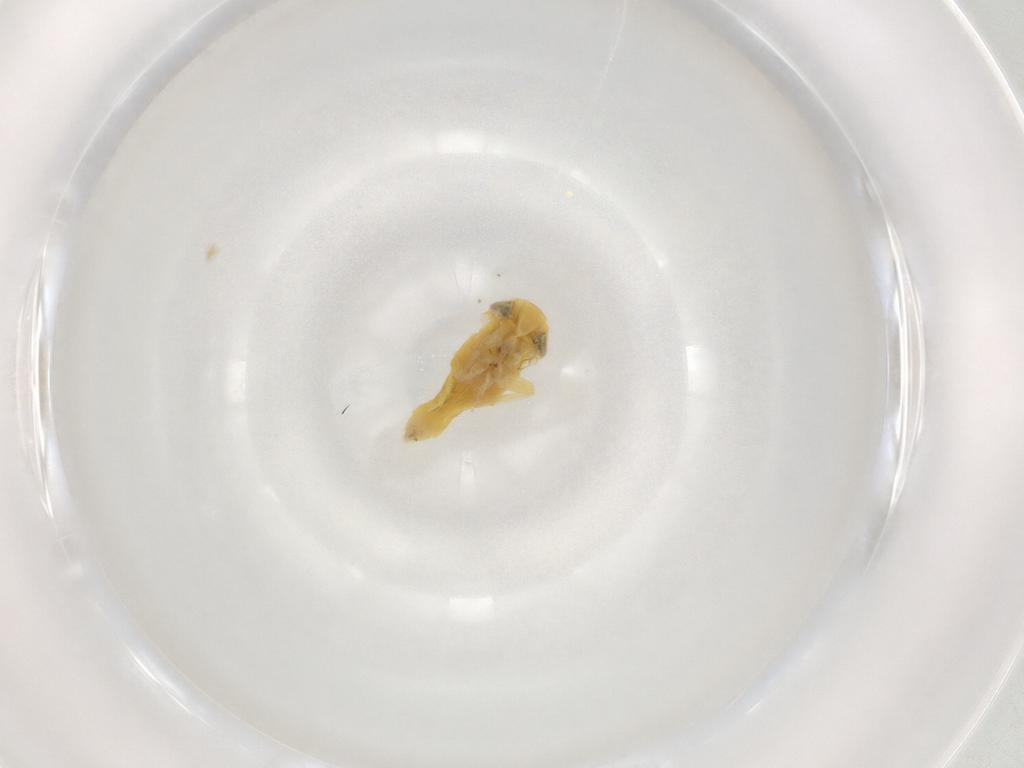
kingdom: Animalia
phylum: Arthropoda
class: Insecta
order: Hemiptera
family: Cicadellidae
